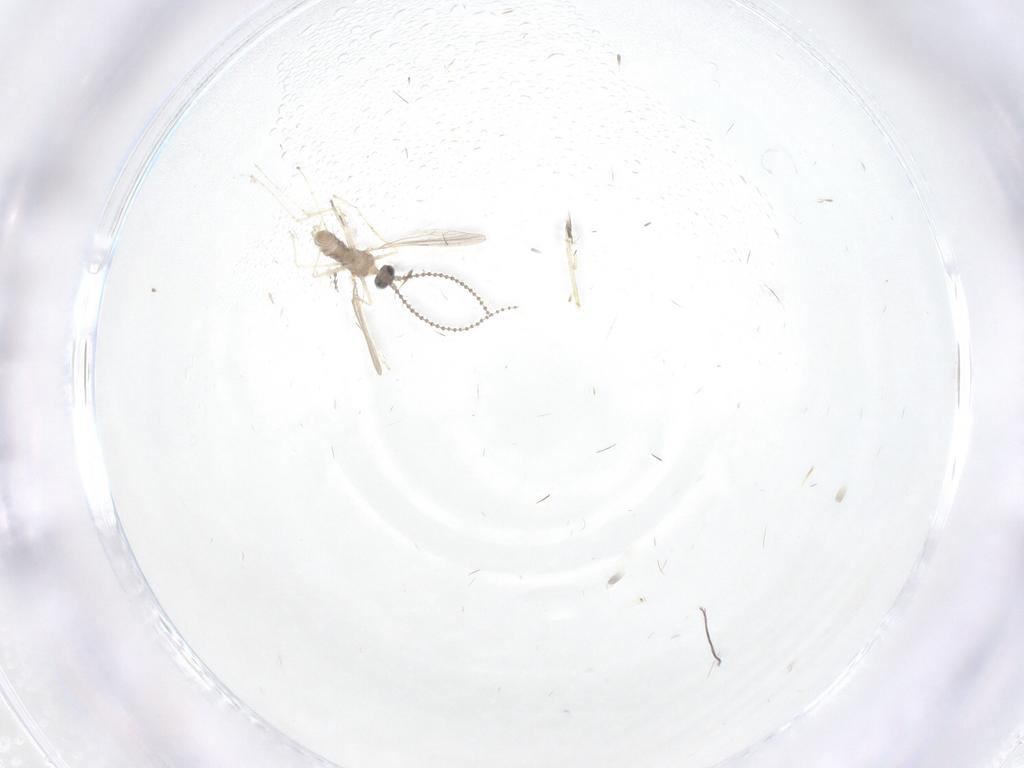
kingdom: Animalia
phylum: Arthropoda
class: Insecta
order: Diptera
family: Cecidomyiidae
